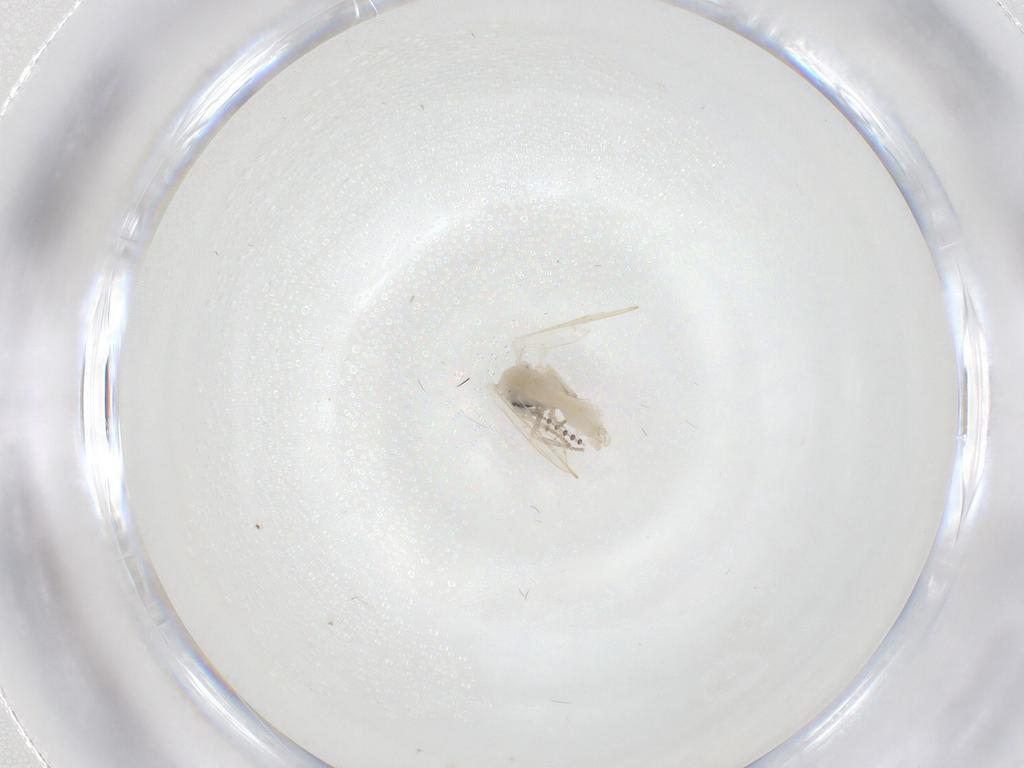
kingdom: Animalia
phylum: Arthropoda
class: Insecta
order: Diptera
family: Psychodidae
